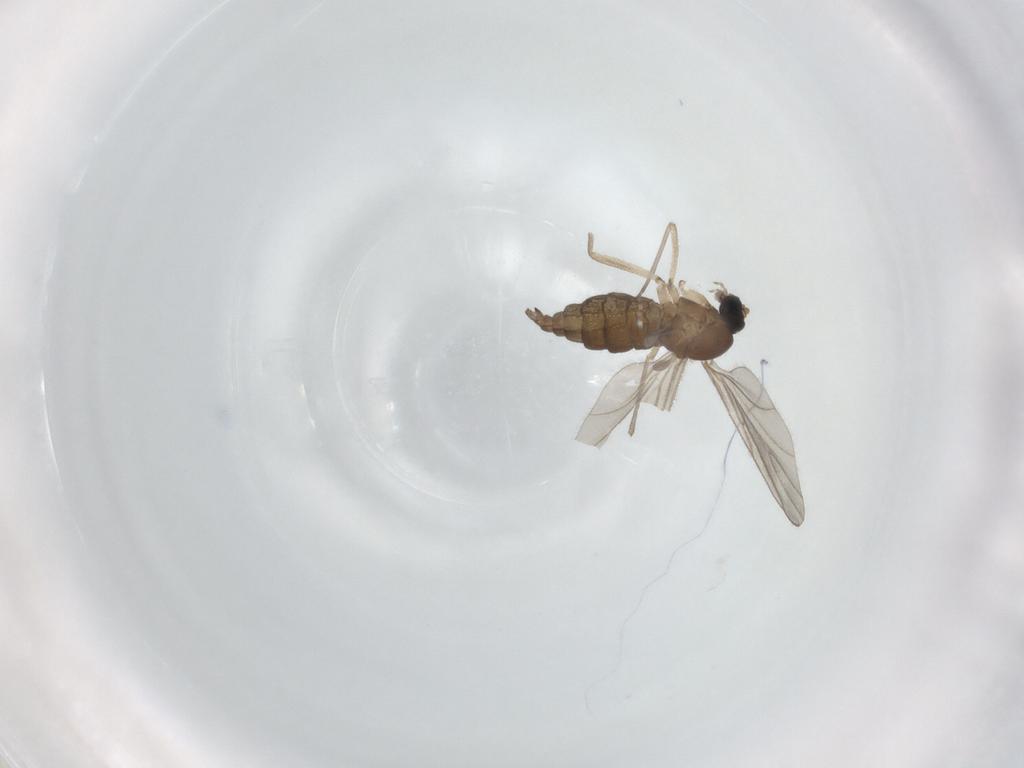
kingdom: Animalia
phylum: Arthropoda
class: Insecta
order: Diptera
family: Sciaridae
